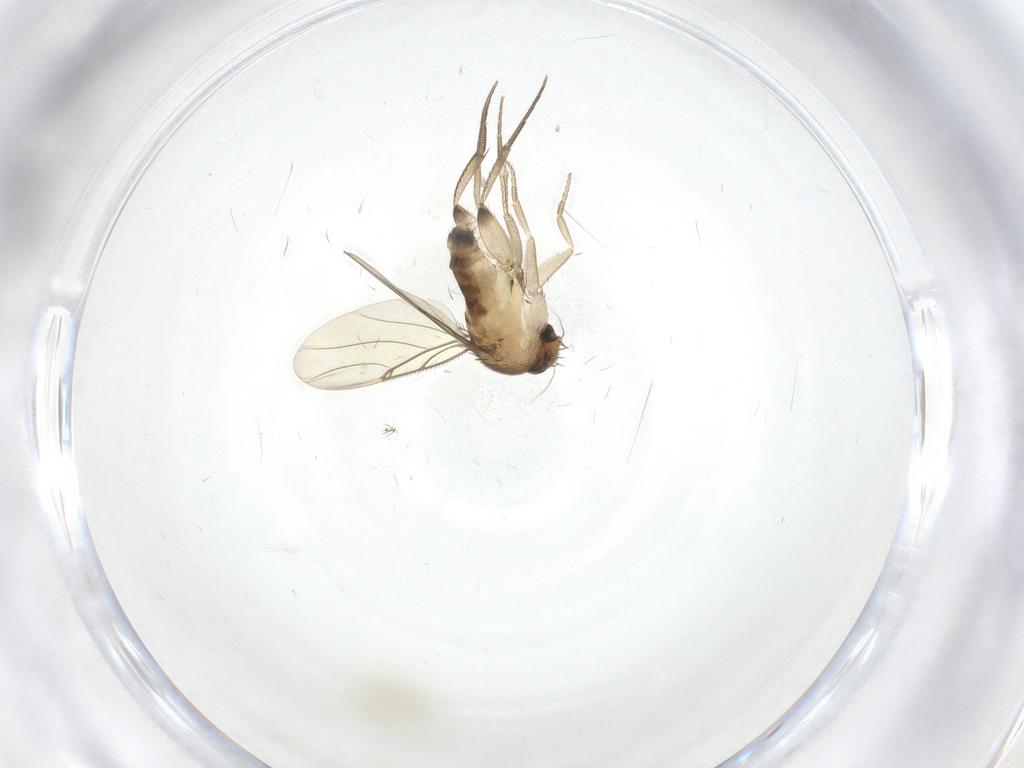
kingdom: Animalia
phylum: Arthropoda
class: Insecta
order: Diptera
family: Phoridae
